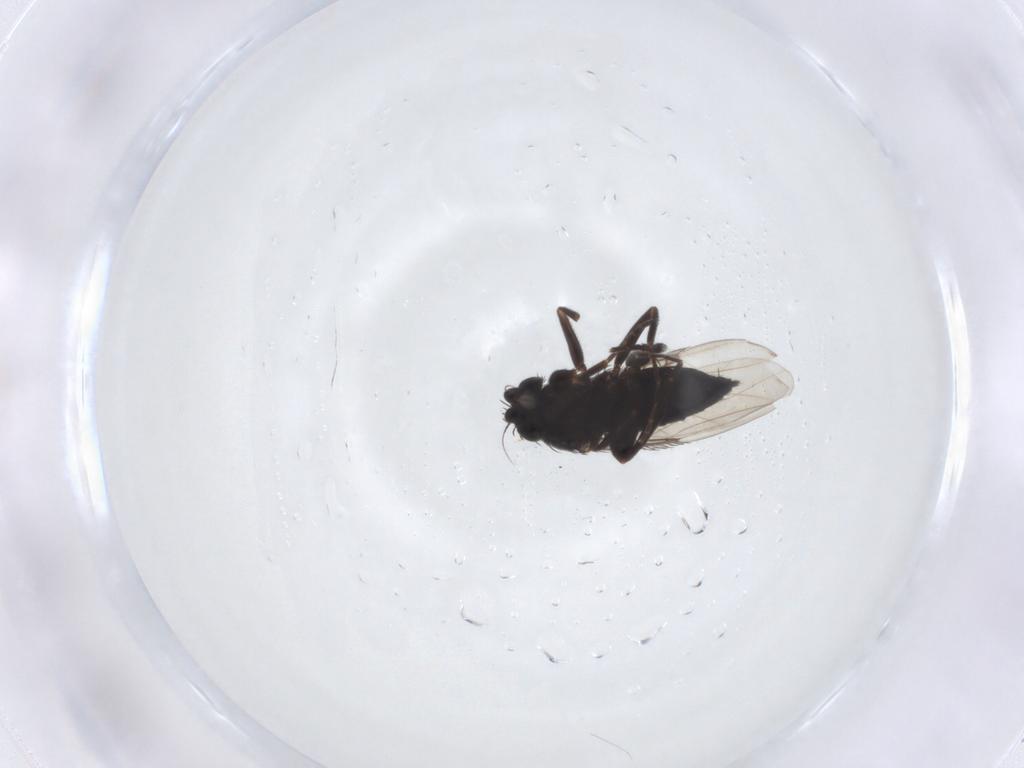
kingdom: Animalia
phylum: Arthropoda
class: Insecta
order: Diptera
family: Phoridae
